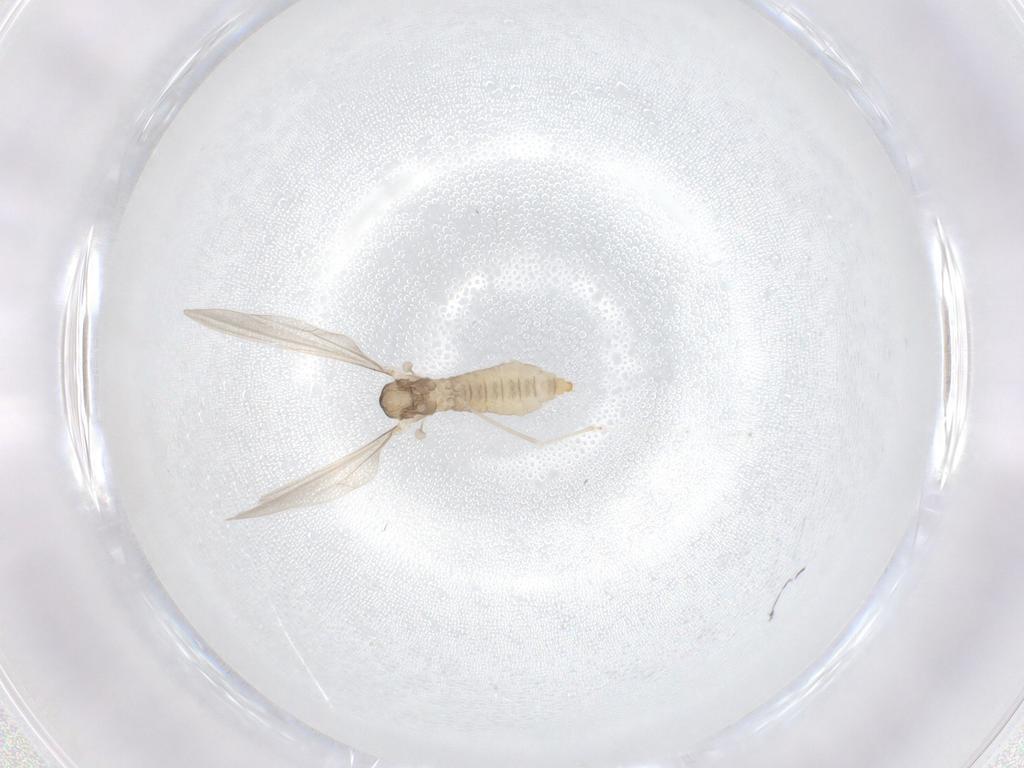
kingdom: Animalia
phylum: Arthropoda
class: Insecta
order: Diptera
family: Cecidomyiidae
